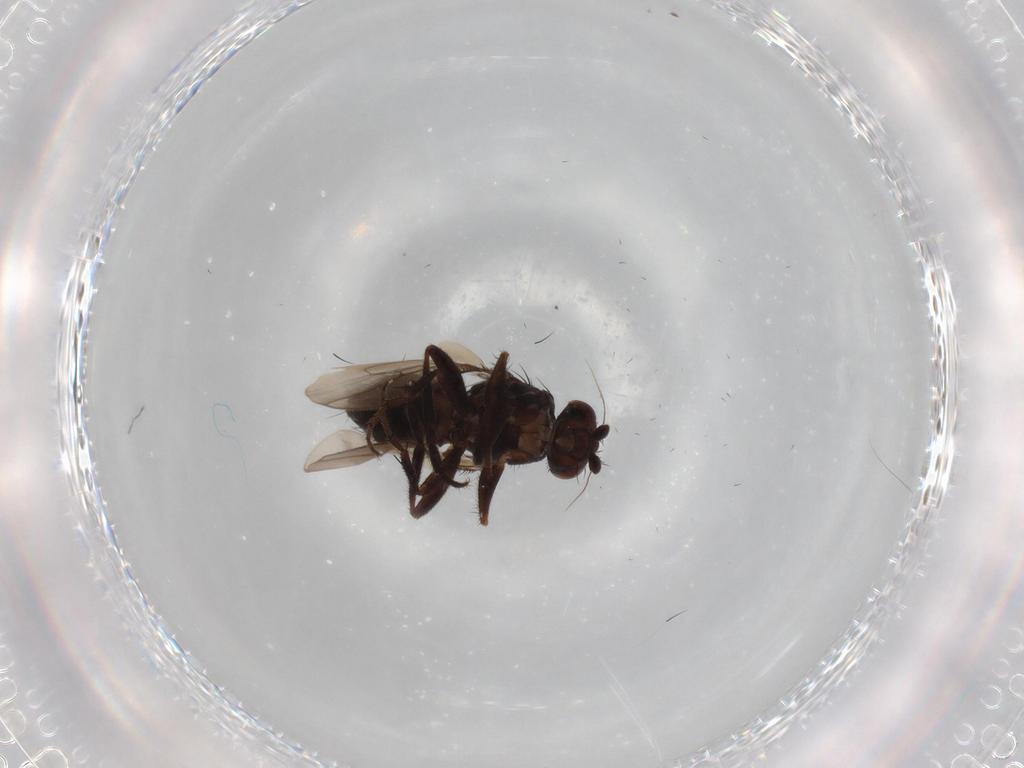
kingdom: Animalia
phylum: Arthropoda
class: Insecta
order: Diptera
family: Sphaeroceridae
